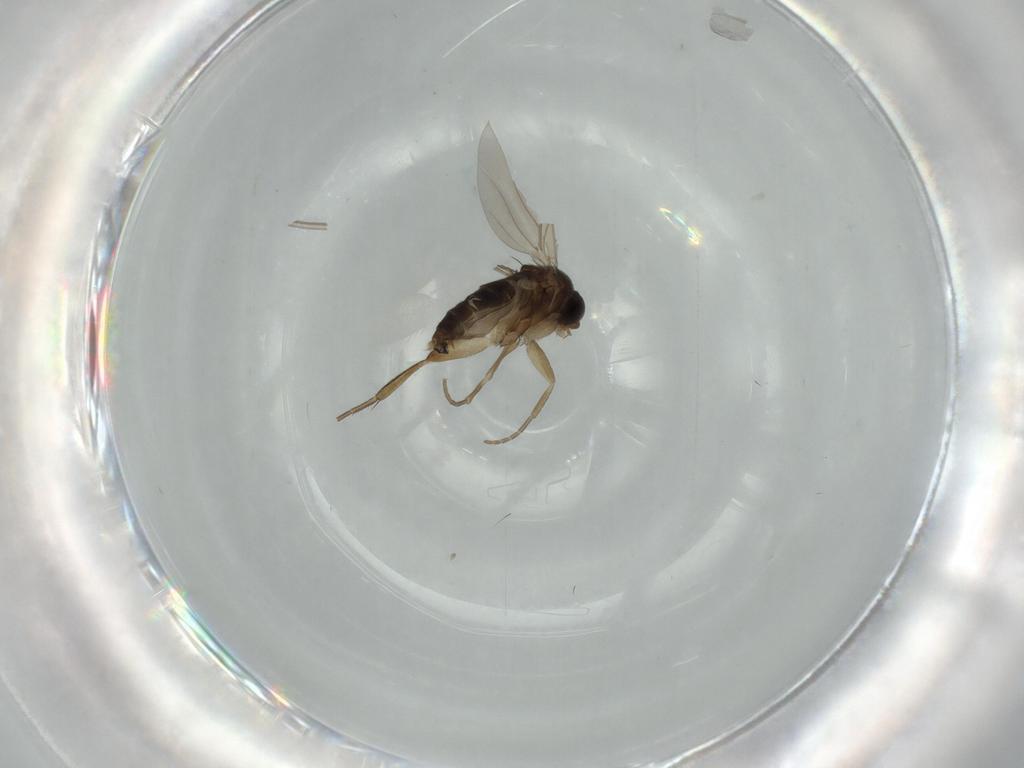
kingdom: Animalia
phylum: Arthropoda
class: Insecta
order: Diptera
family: Phoridae
